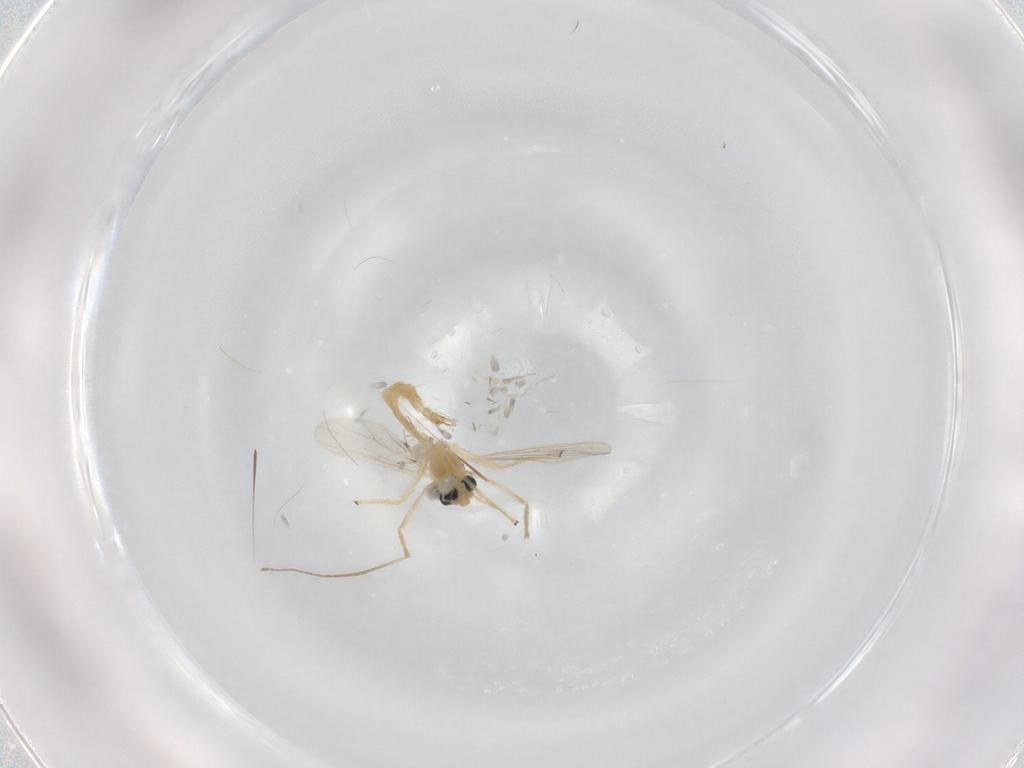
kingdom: Animalia
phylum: Arthropoda
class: Insecta
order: Diptera
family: Chironomidae
